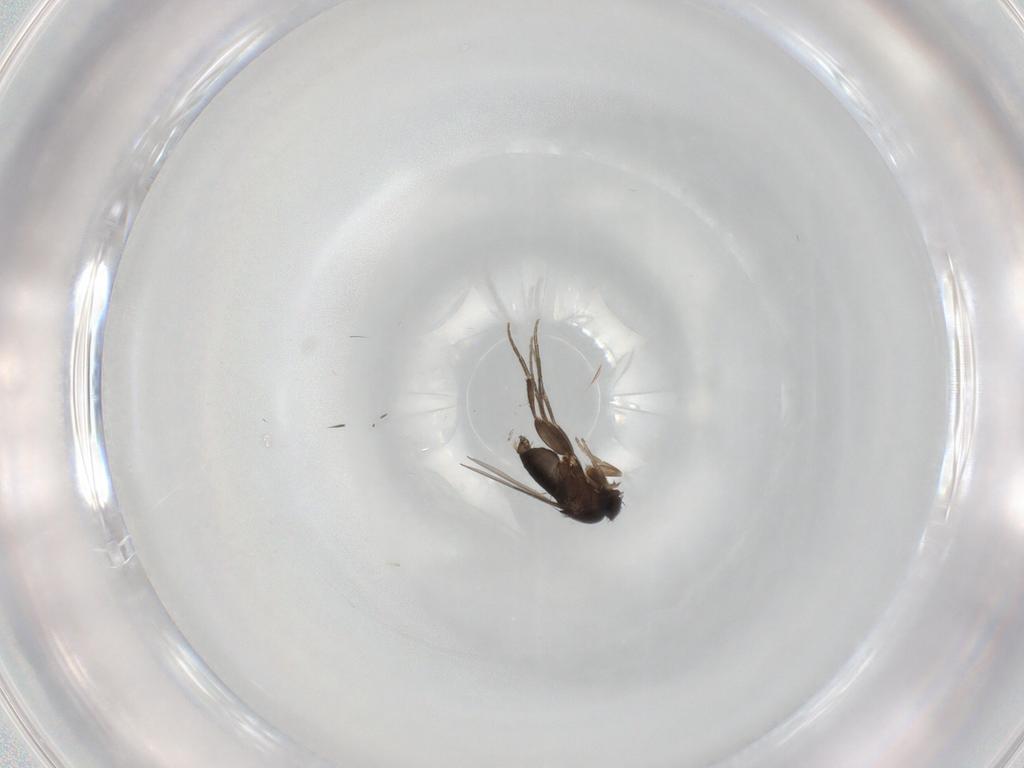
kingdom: Animalia
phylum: Arthropoda
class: Insecta
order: Diptera
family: Phoridae
